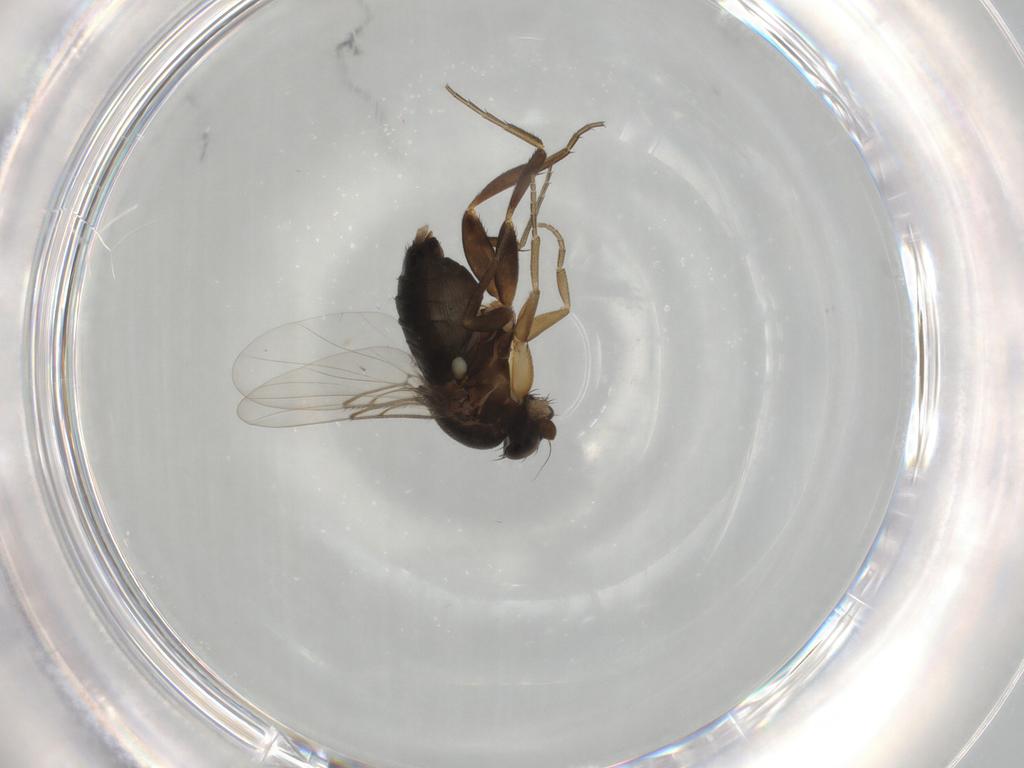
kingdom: Animalia
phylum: Arthropoda
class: Insecta
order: Diptera
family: Phoridae
